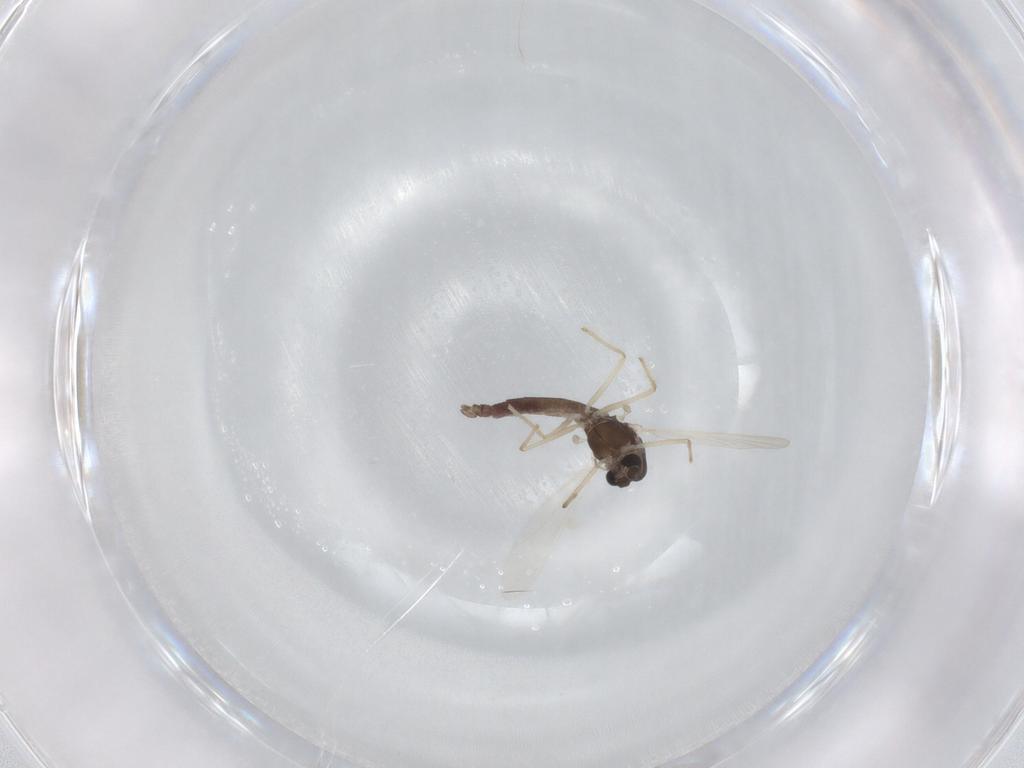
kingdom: Animalia
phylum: Arthropoda
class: Insecta
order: Diptera
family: Chironomidae
